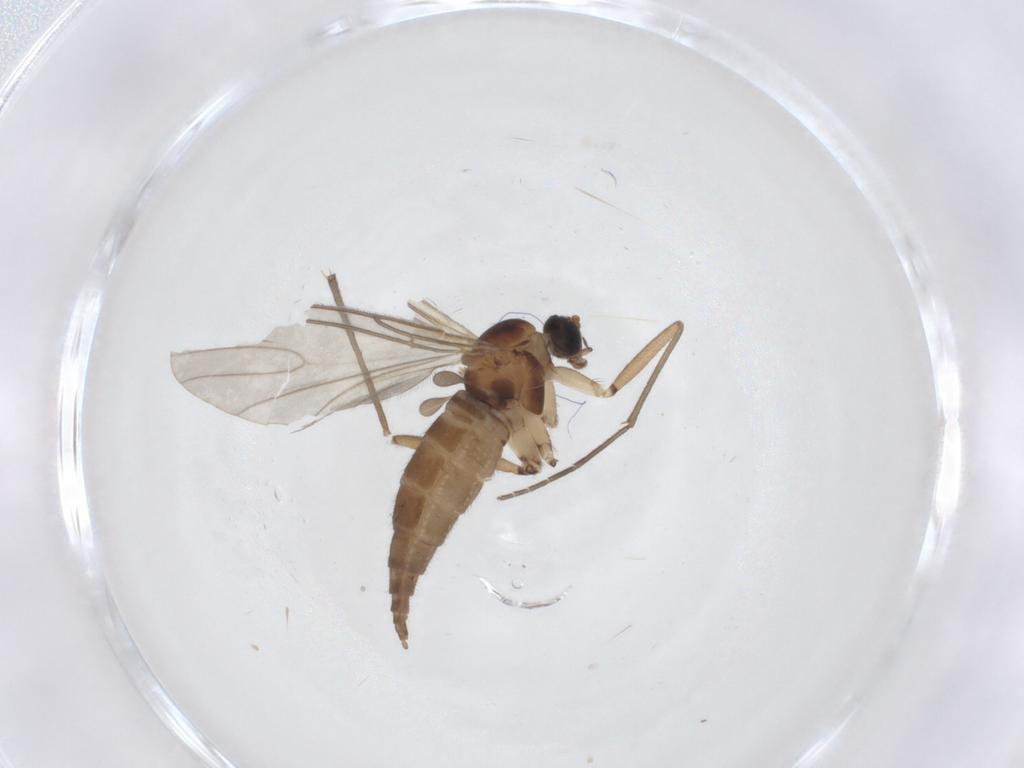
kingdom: Animalia
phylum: Arthropoda
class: Insecta
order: Diptera
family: Sciaridae
